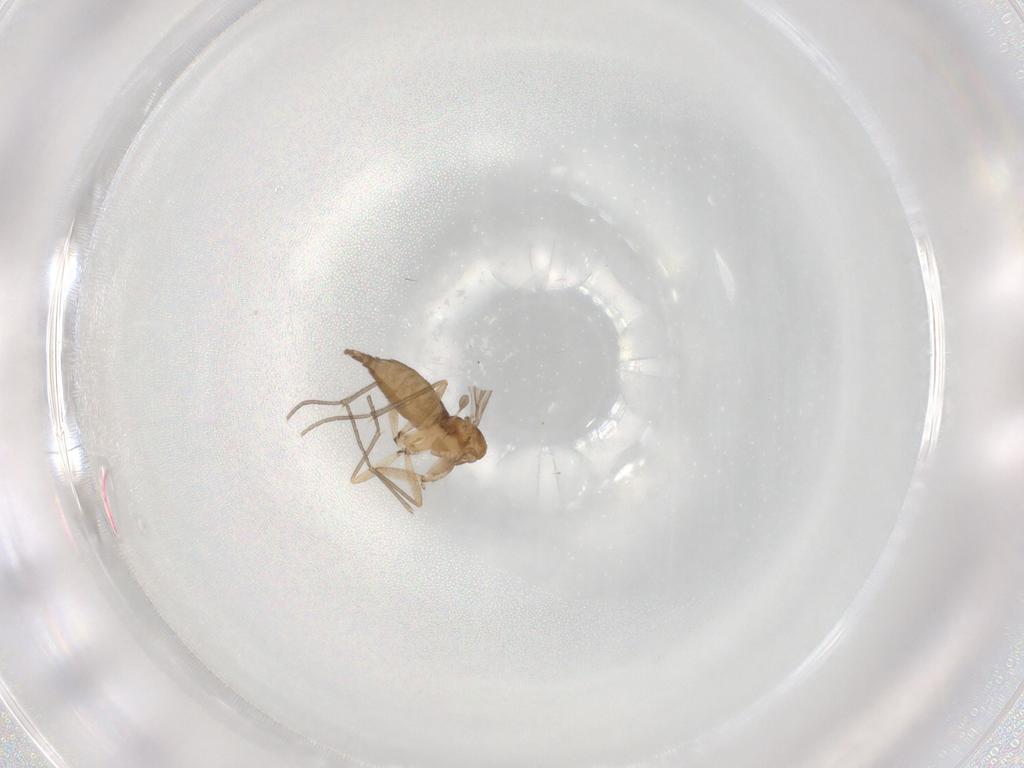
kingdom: Animalia
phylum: Arthropoda
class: Insecta
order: Diptera
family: Sciaridae
